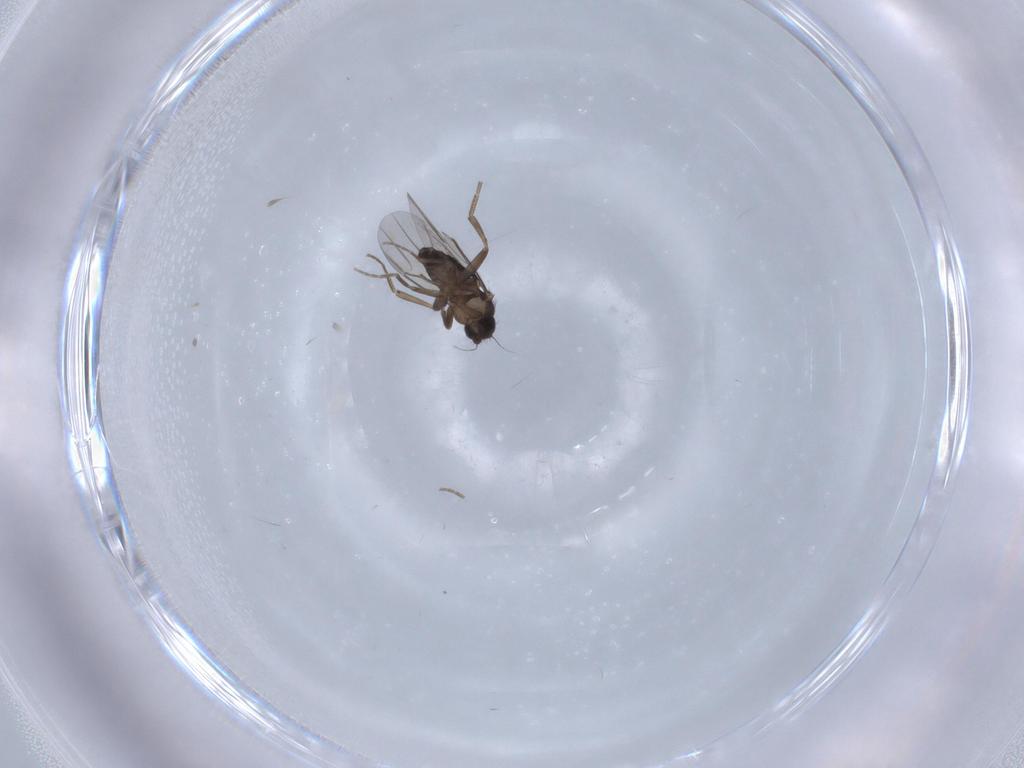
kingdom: Animalia
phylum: Arthropoda
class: Insecta
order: Diptera
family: Phoridae
